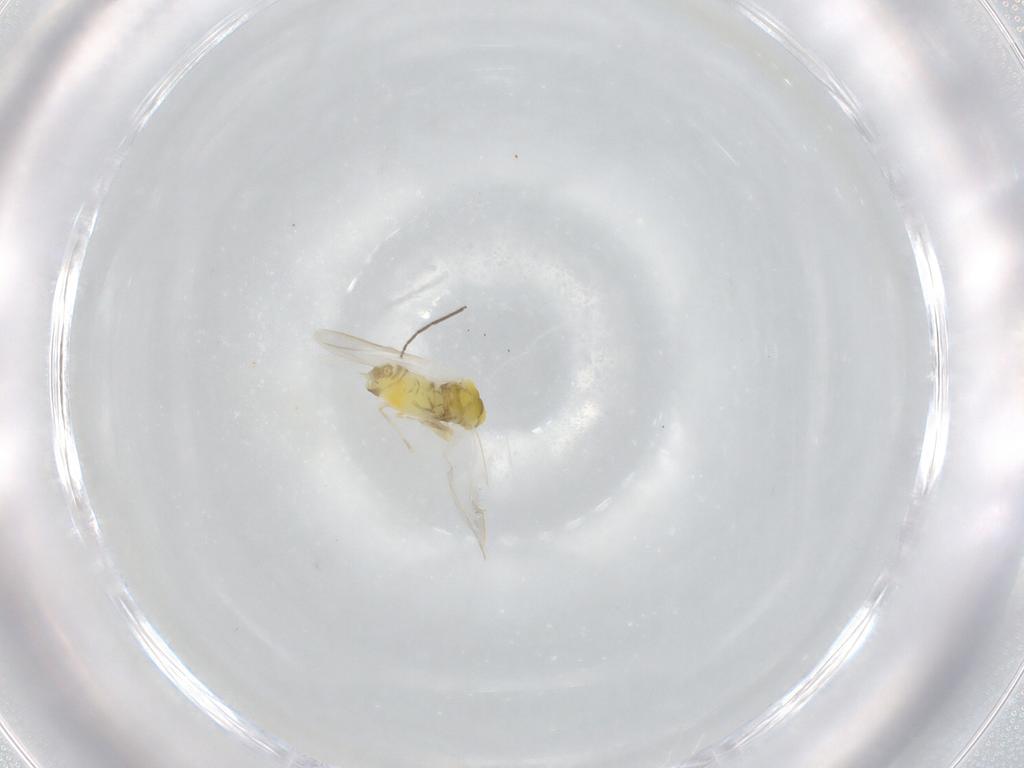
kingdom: Animalia
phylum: Arthropoda
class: Insecta
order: Hemiptera
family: Aleyrodidae
